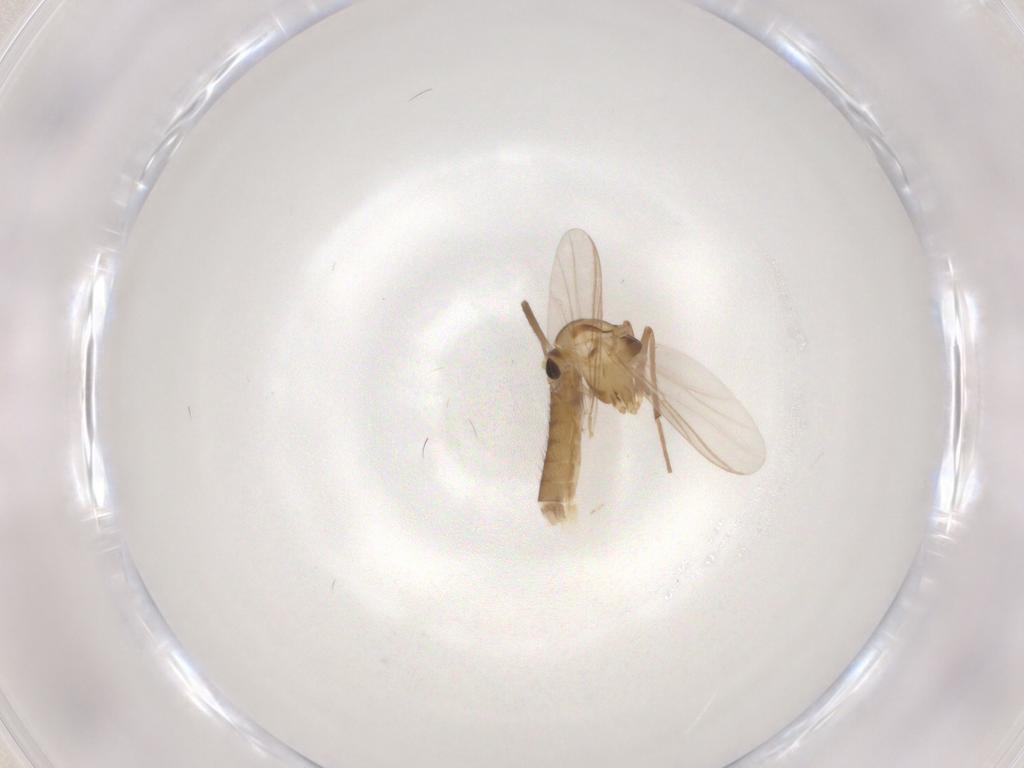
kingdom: Animalia
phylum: Arthropoda
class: Insecta
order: Diptera
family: Chironomidae
